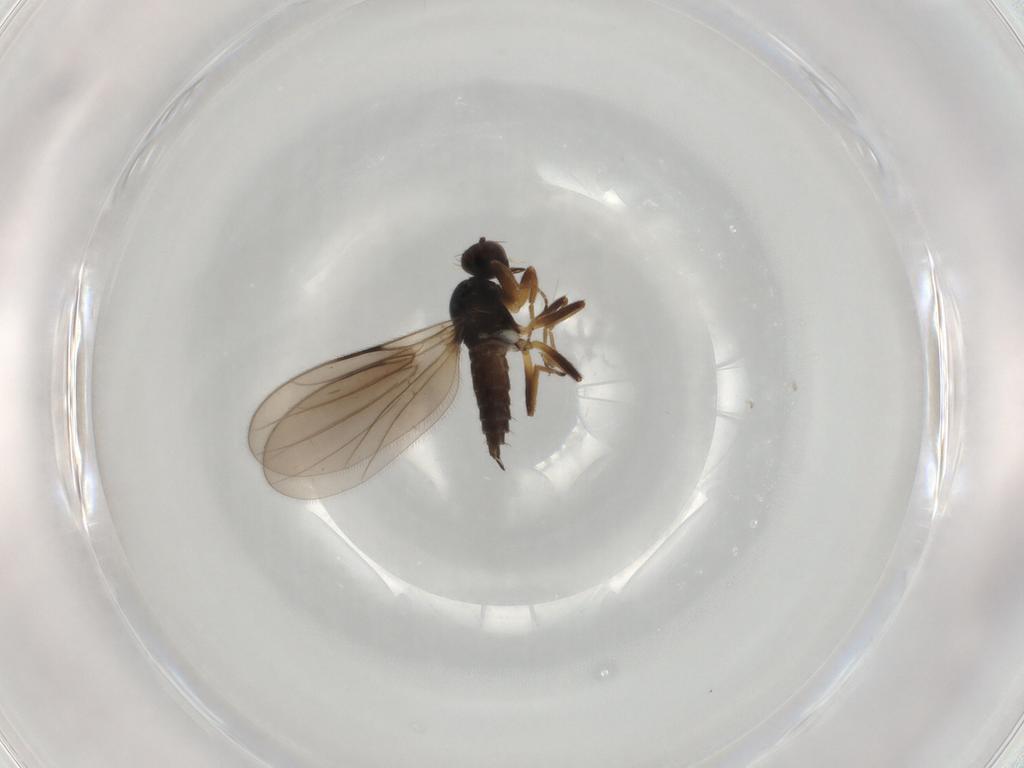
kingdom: Animalia
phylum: Arthropoda
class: Insecta
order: Diptera
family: Hybotidae
